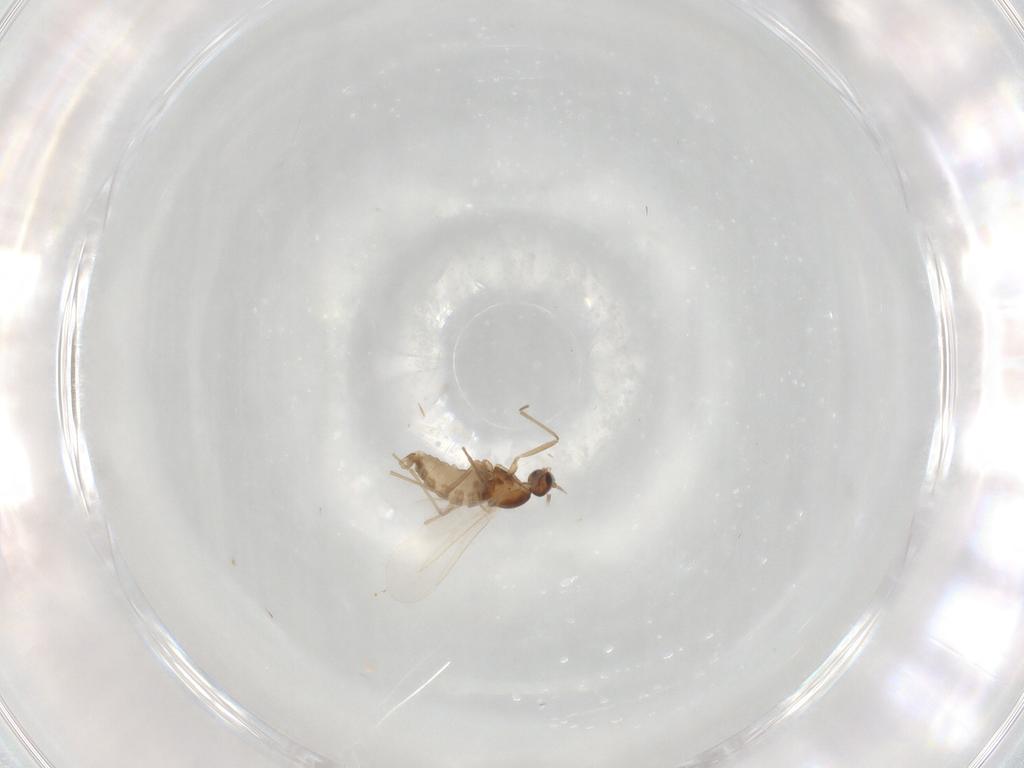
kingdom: Animalia
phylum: Arthropoda
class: Insecta
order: Diptera
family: Cecidomyiidae
